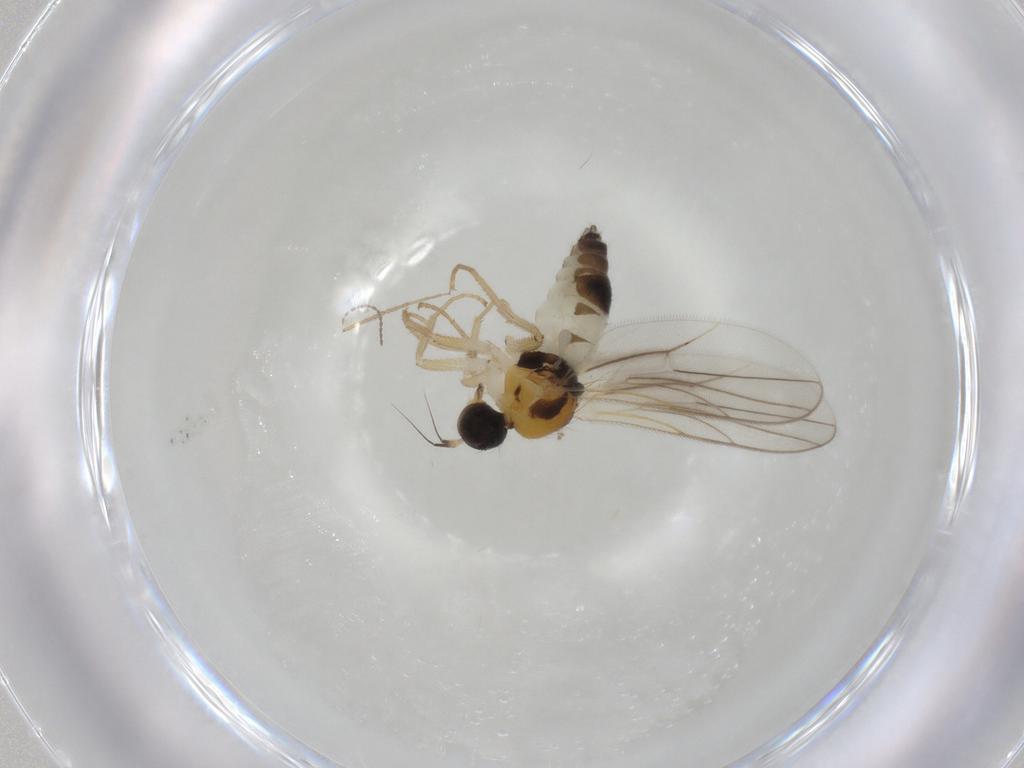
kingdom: Animalia
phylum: Arthropoda
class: Insecta
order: Diptera
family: Hybotidae
